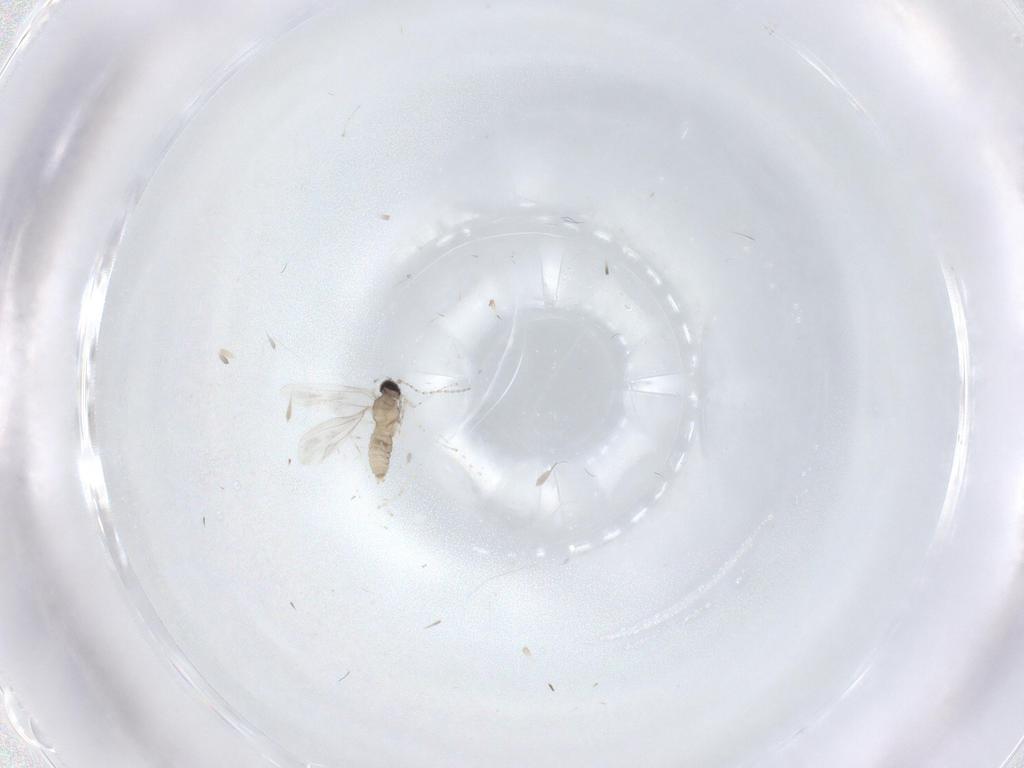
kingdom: Animalia
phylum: Arthropoda
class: Insecta
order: Diptera
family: Cecidomyiidae
